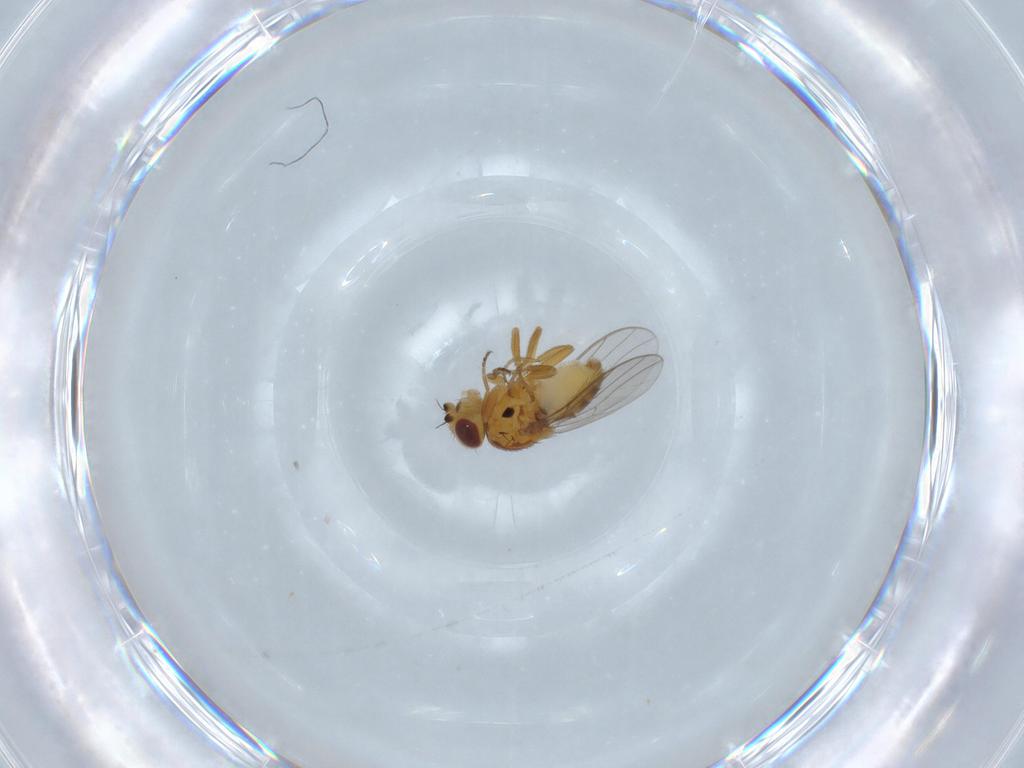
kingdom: Animalia
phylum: Arthropoda
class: Insecta
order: Diptera
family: Chloropidae
